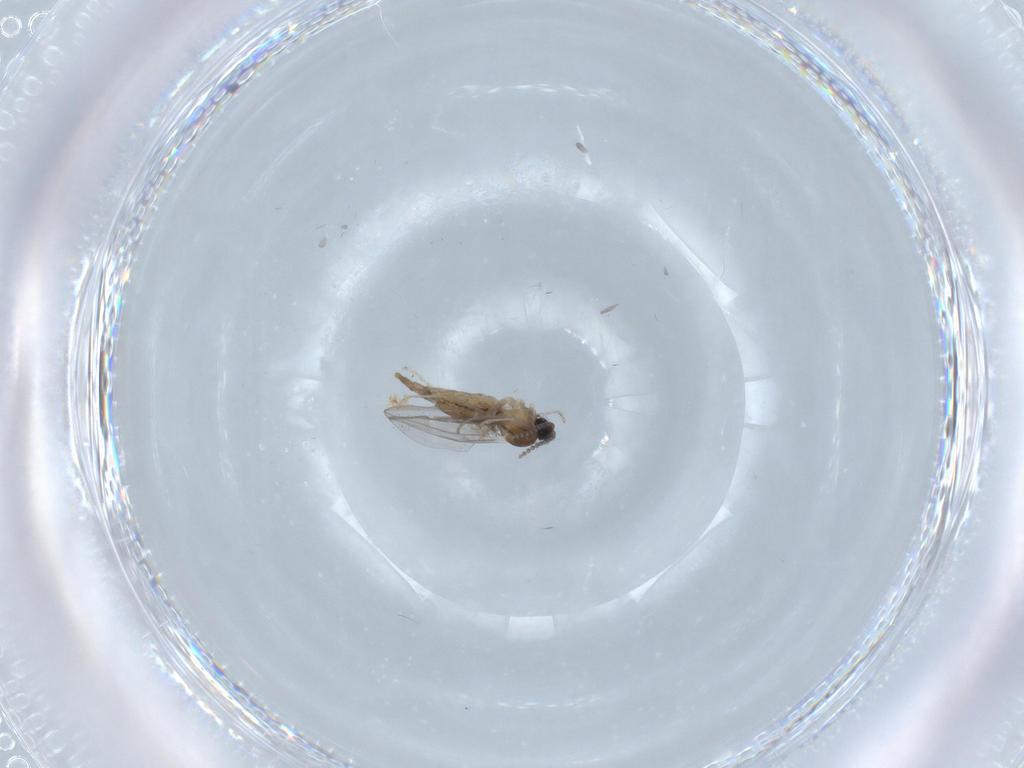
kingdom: Animalia
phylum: Arthropoda
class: Insecta
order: Diptera
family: Cecidomyiidae
